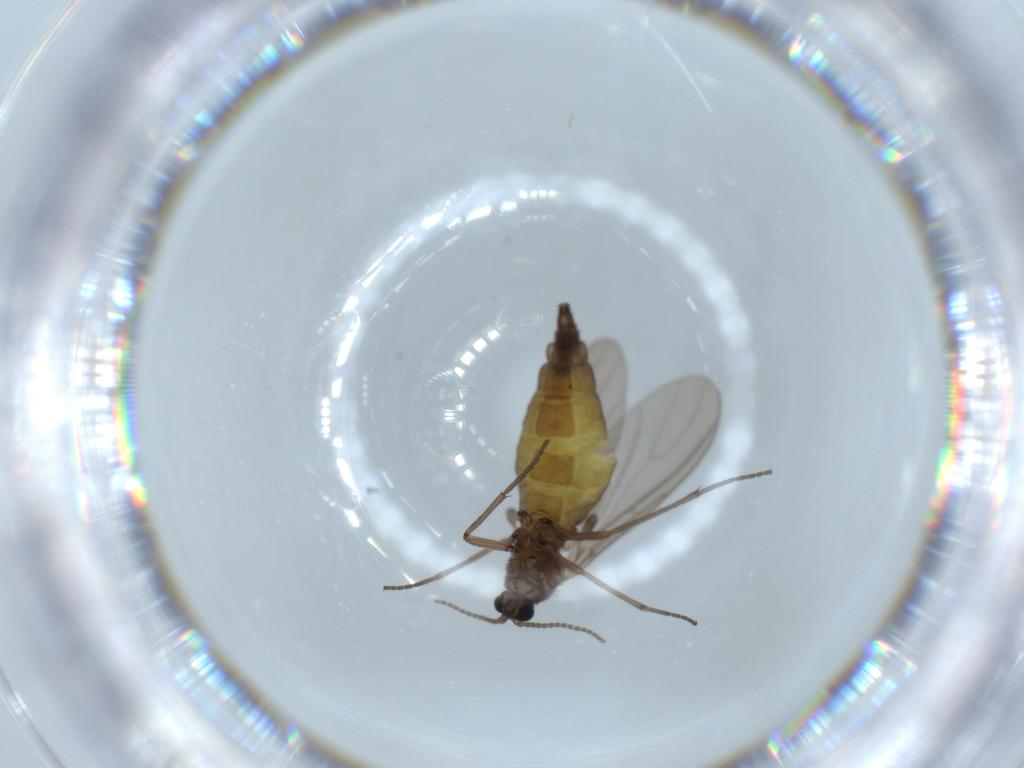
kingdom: Animalia
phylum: Arthropoda
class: Insecta
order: Diptera
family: Sciaridae
